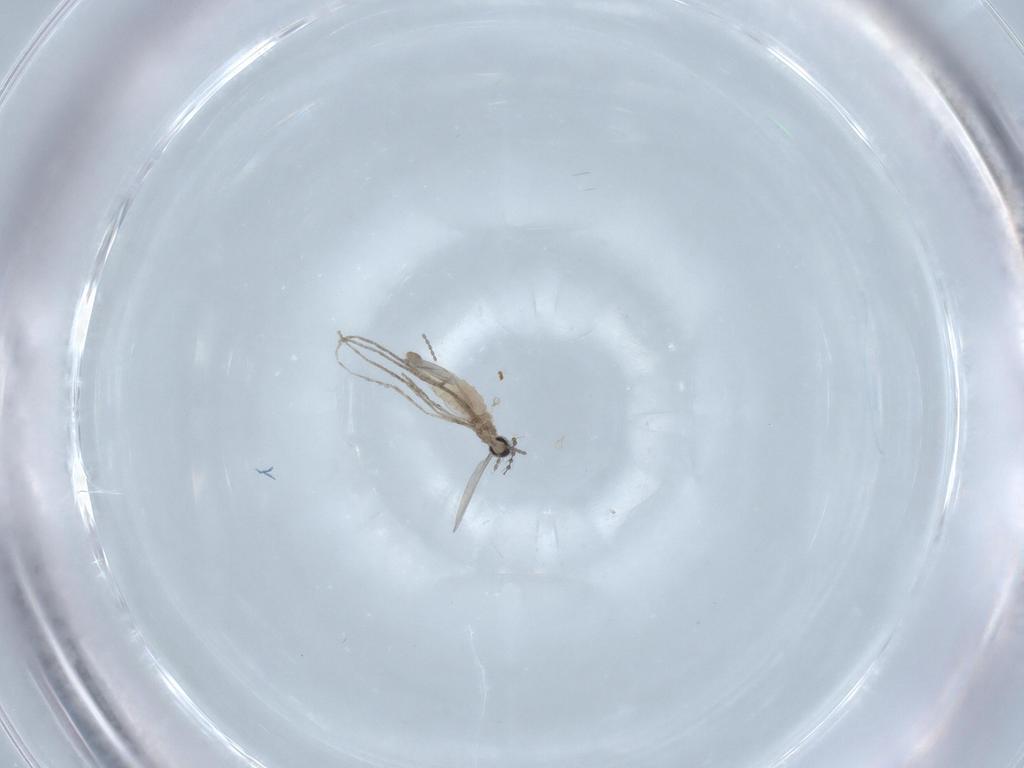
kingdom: Animalia
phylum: Arthropoda
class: Insecta
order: Diptera
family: Cecidomyiidae
